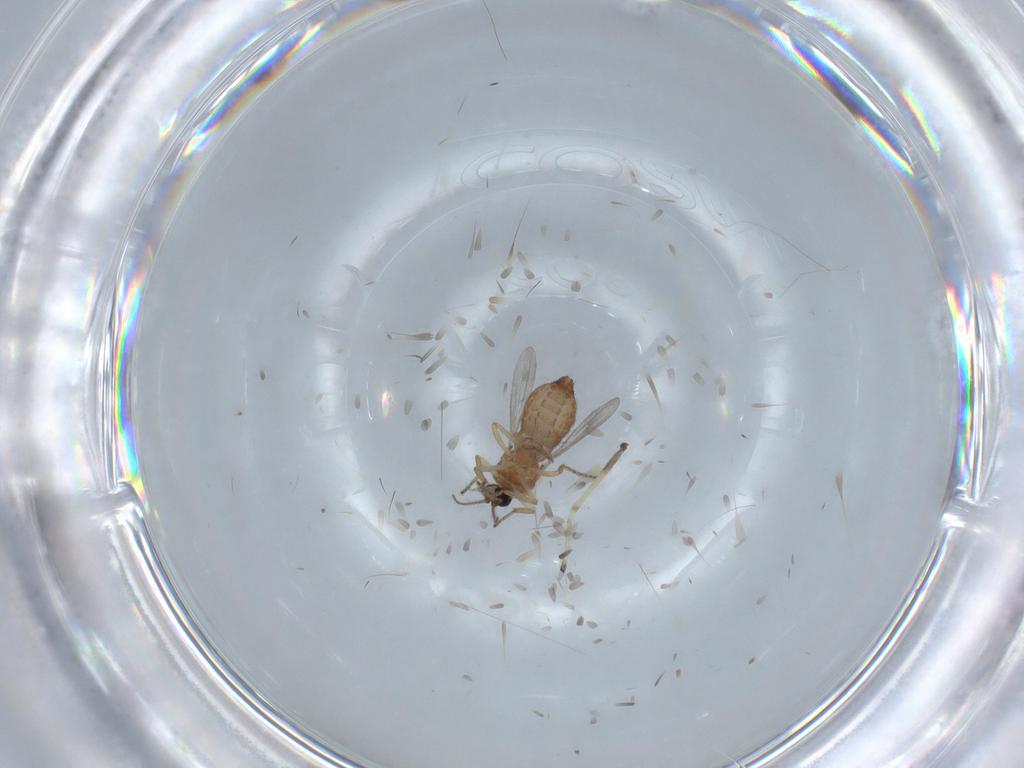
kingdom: Animalia
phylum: Arthropoda
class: Insecta
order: Diptera
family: Ceratopogonidae
